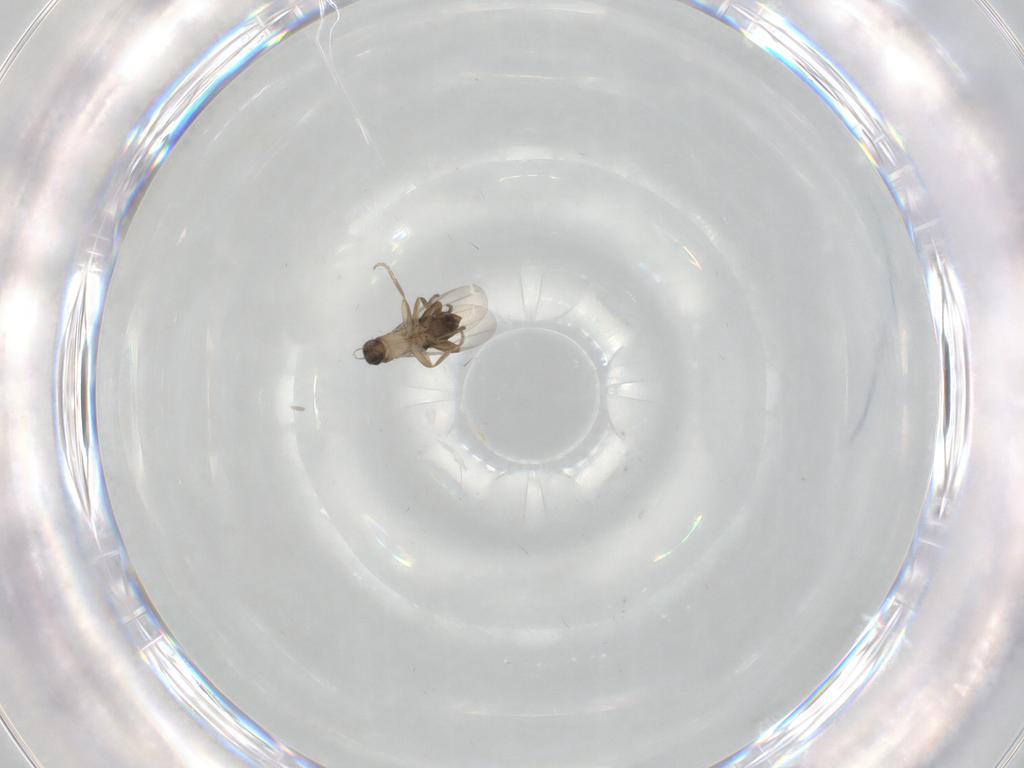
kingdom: Animalia
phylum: Arthropoda
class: Insecta
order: Diptera
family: Phoridae
